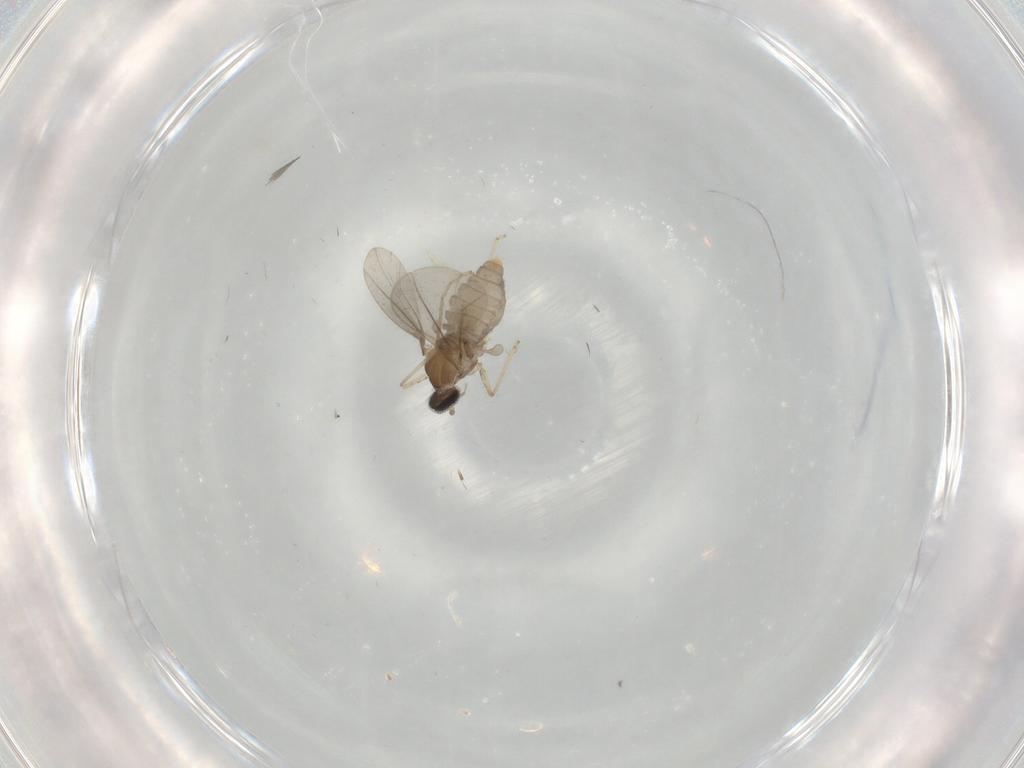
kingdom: Animalia
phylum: Arthropoda
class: Insecta
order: Diptera
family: Cecidomyiidae
